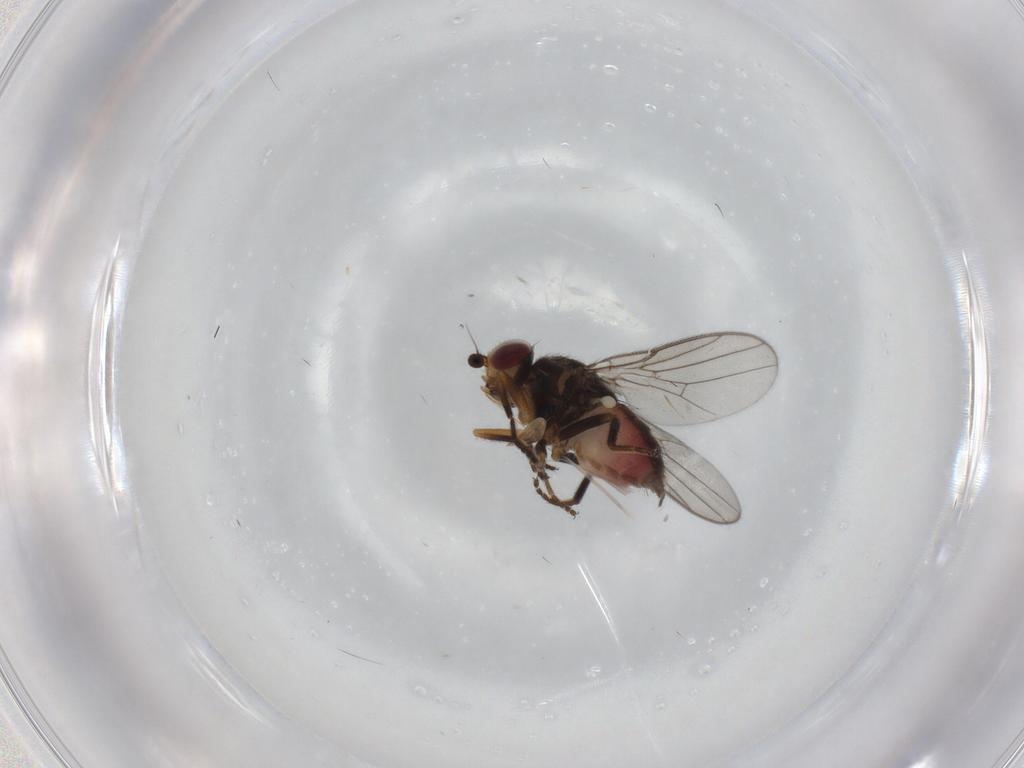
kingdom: Animalia
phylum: Arthropoda
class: Insecta
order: Diptera
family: Chloropidae
